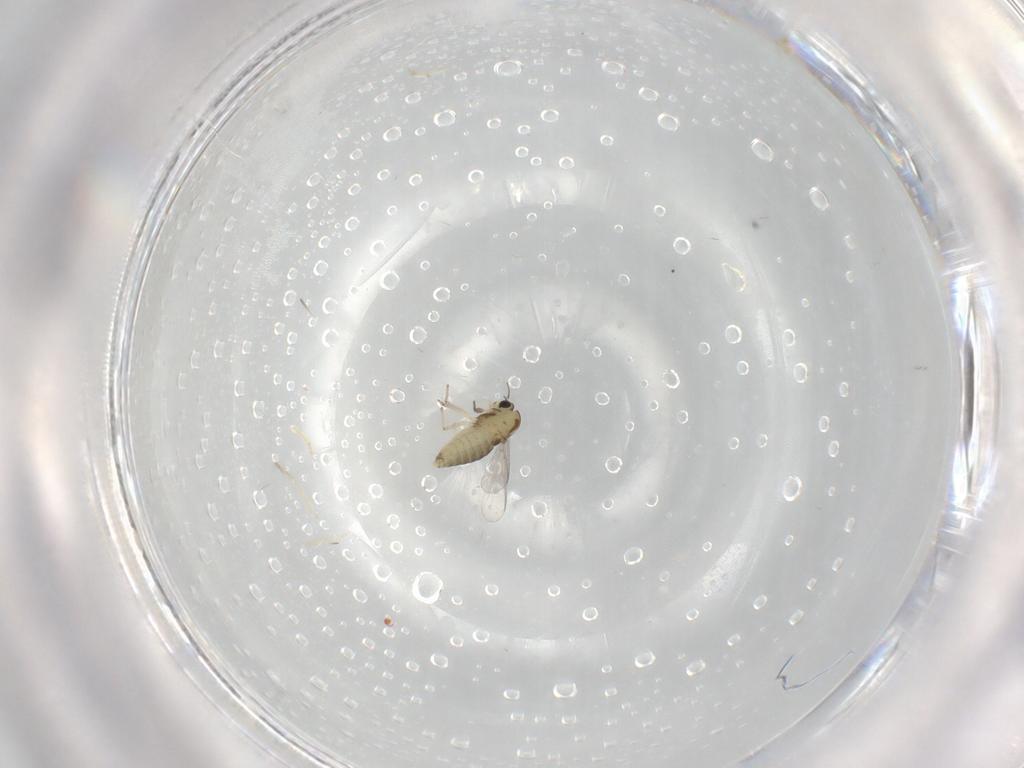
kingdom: Animalia
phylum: Arthropoda
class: Insecta
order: Diptera
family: Chironomidae
